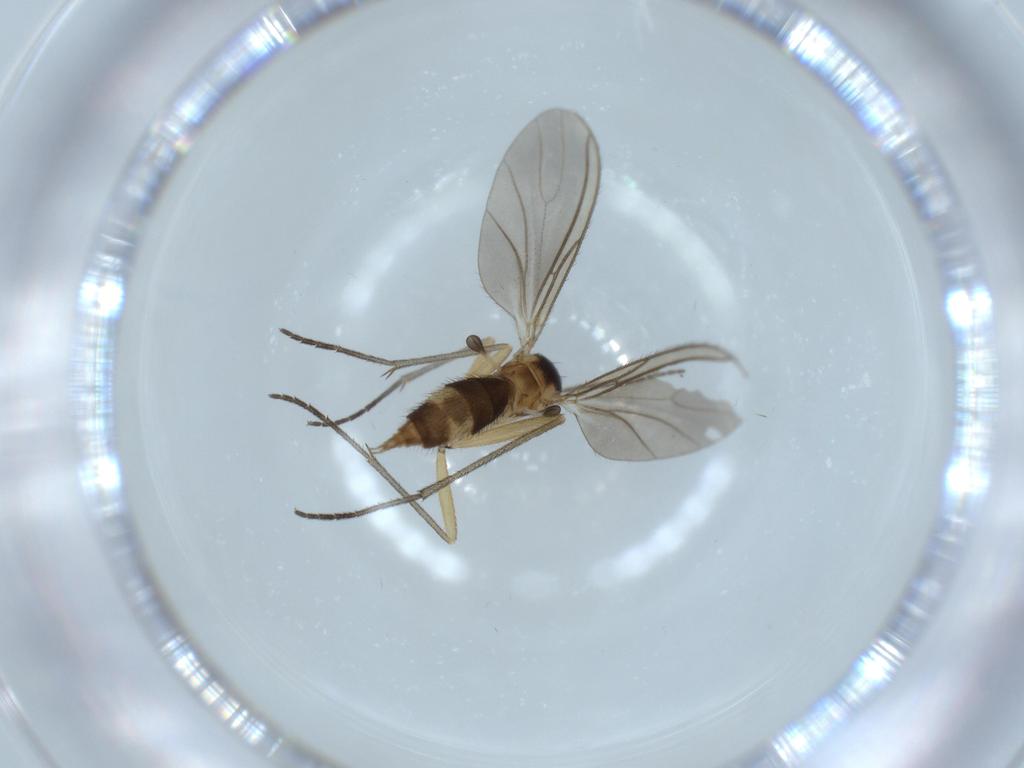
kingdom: Animalia
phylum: Arthropoda
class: Insecta
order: Diptera
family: Sciaridae
